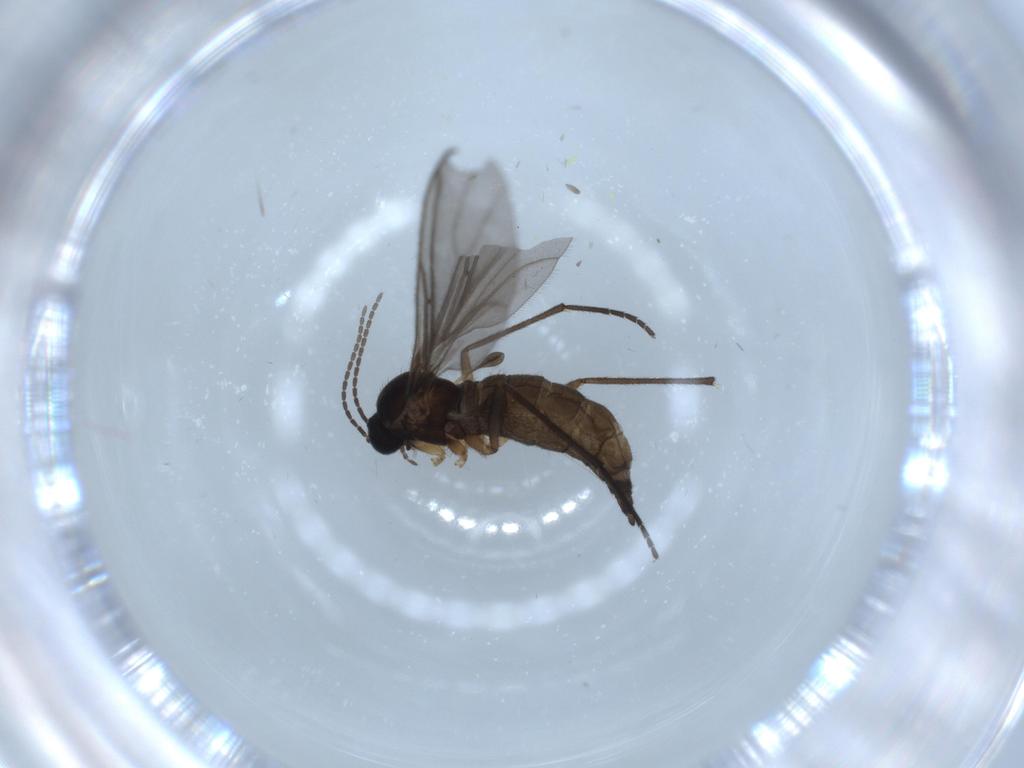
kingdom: Animalia
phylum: Arthropoda
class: Insecta
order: Diptera
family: Sciaridae
